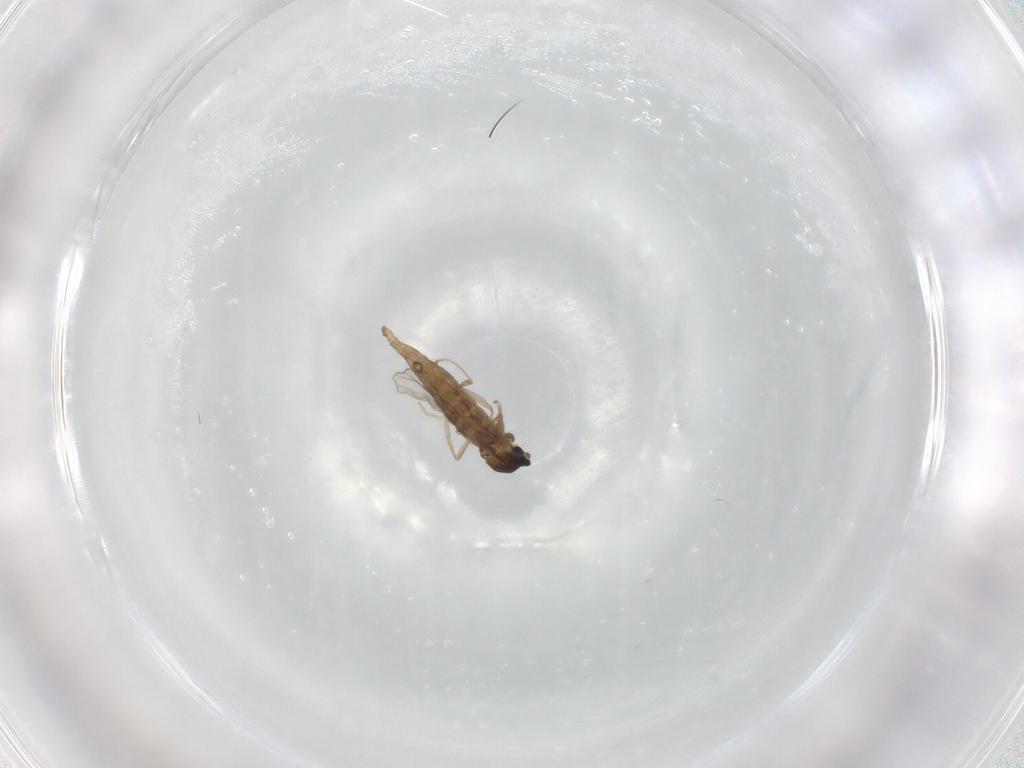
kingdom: Animalia
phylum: Arthropoda
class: Insecta
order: Diptera
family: Cecidomyiidae
